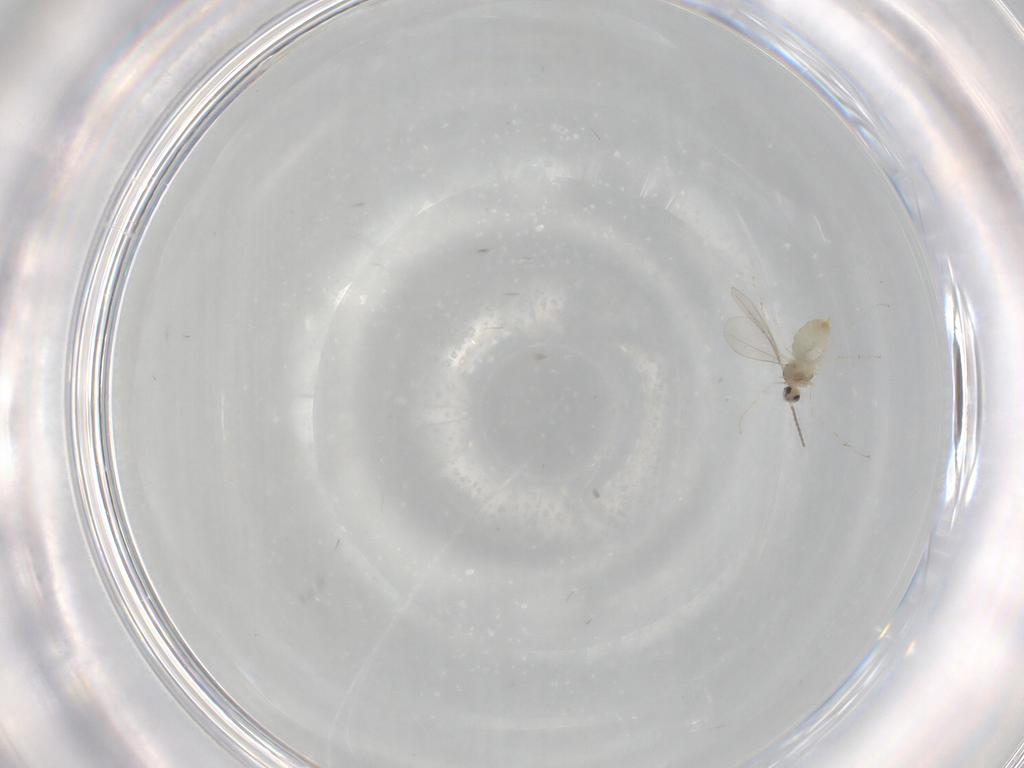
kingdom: Animalia
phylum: Arthropoda
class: Insecta
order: Diptera
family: Cecidomyiidae
